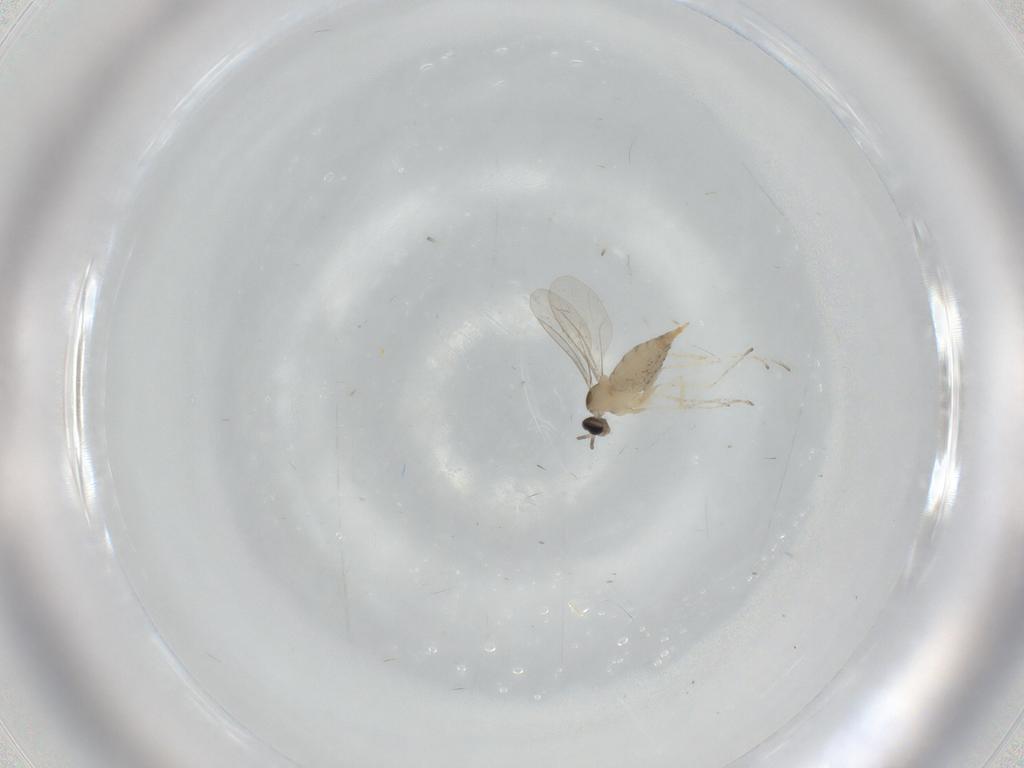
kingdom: Animalia
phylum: Arthropoda
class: Insecta
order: Diptera
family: Cecidomyiidae
